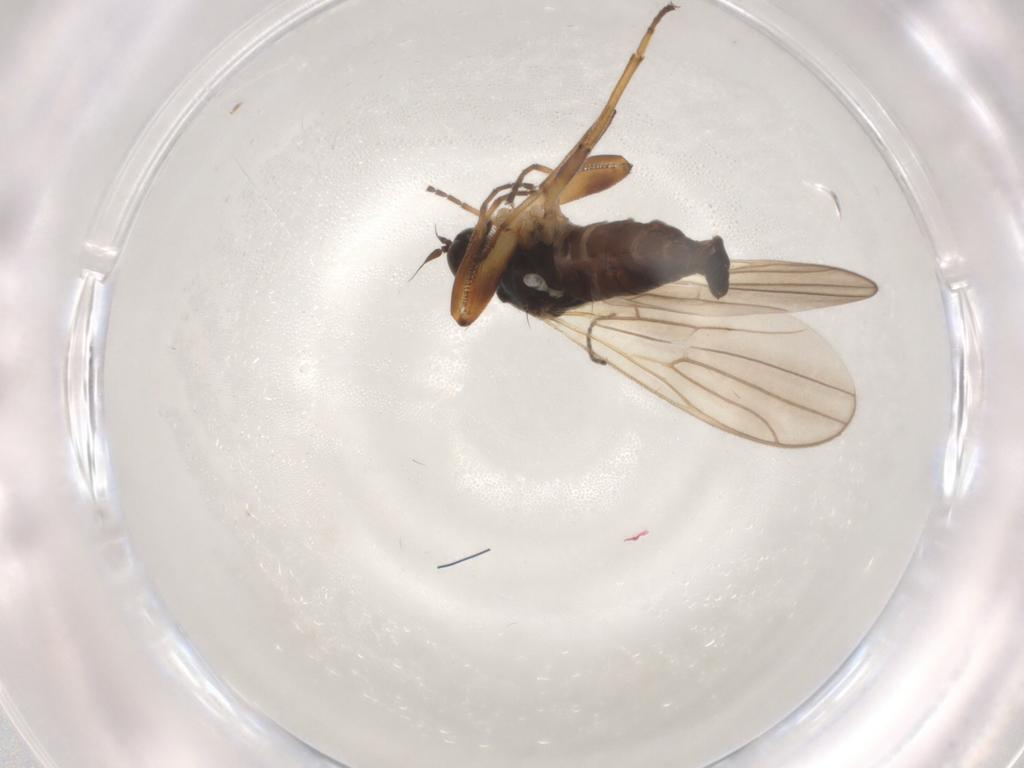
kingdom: Animalia
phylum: Arthropoda
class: Insecta
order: Diptera
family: Hybotidae
